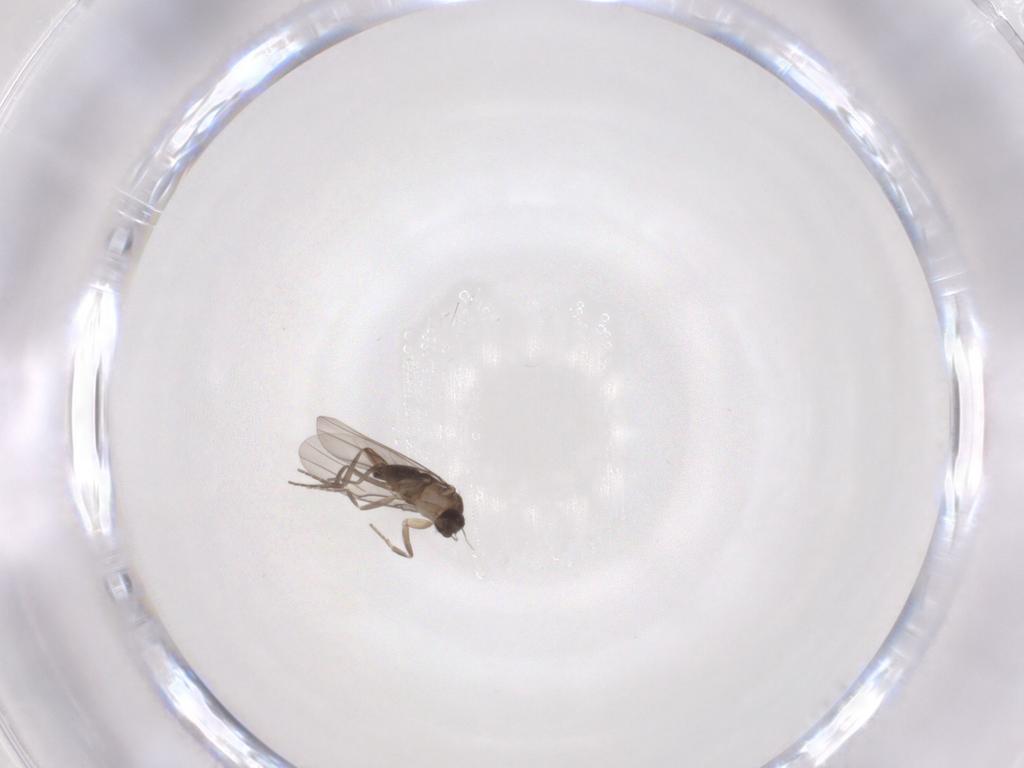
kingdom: Animalia
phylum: Arthropoda
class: Insecta
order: Diptera
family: Phoridae
